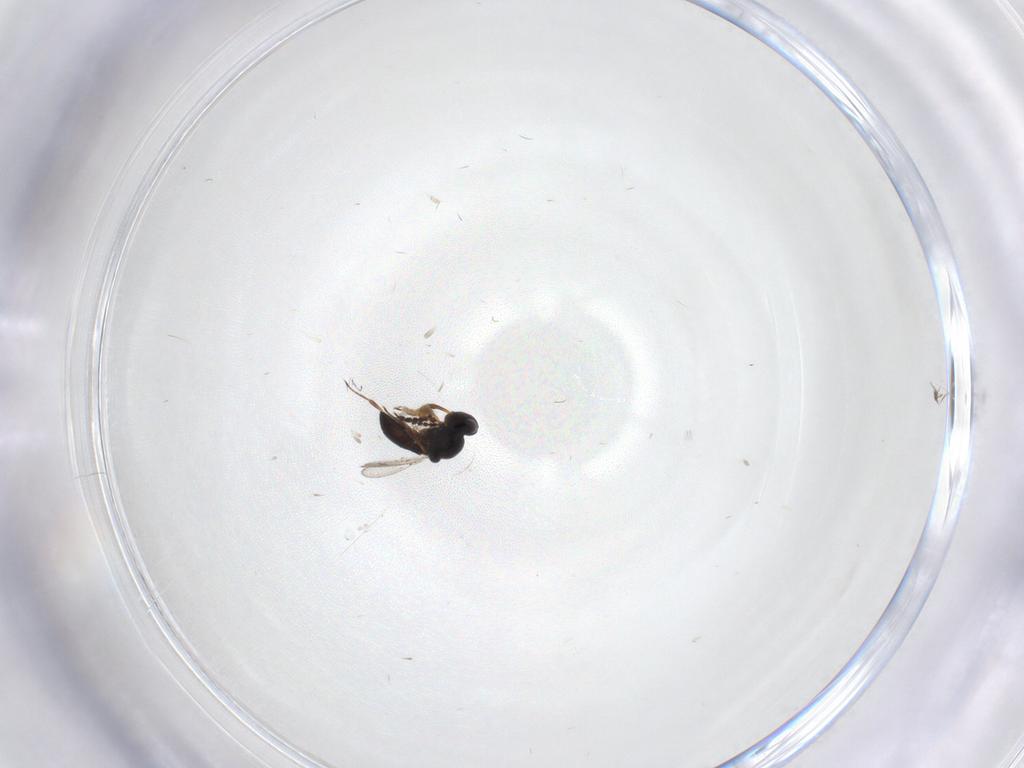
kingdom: Animalia
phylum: Arthropoda
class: Insecta
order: Hymenoptera
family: Platygastridae
